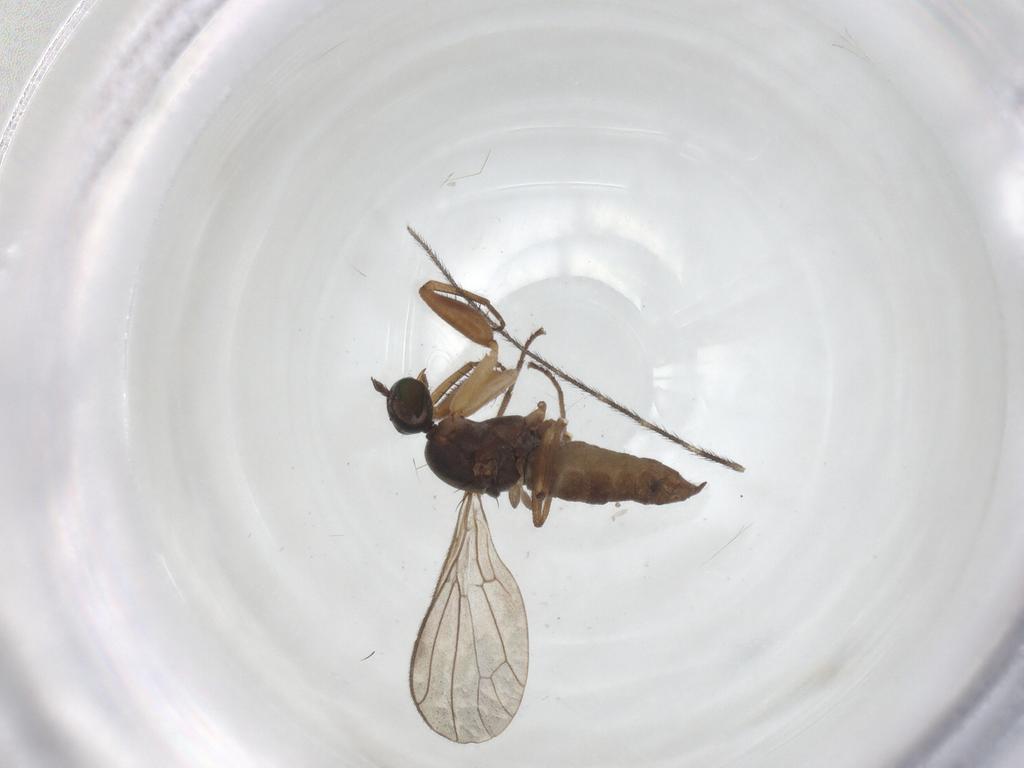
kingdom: Animalia
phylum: Arthropoda
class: Insecta
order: Diptera
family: Empididae
